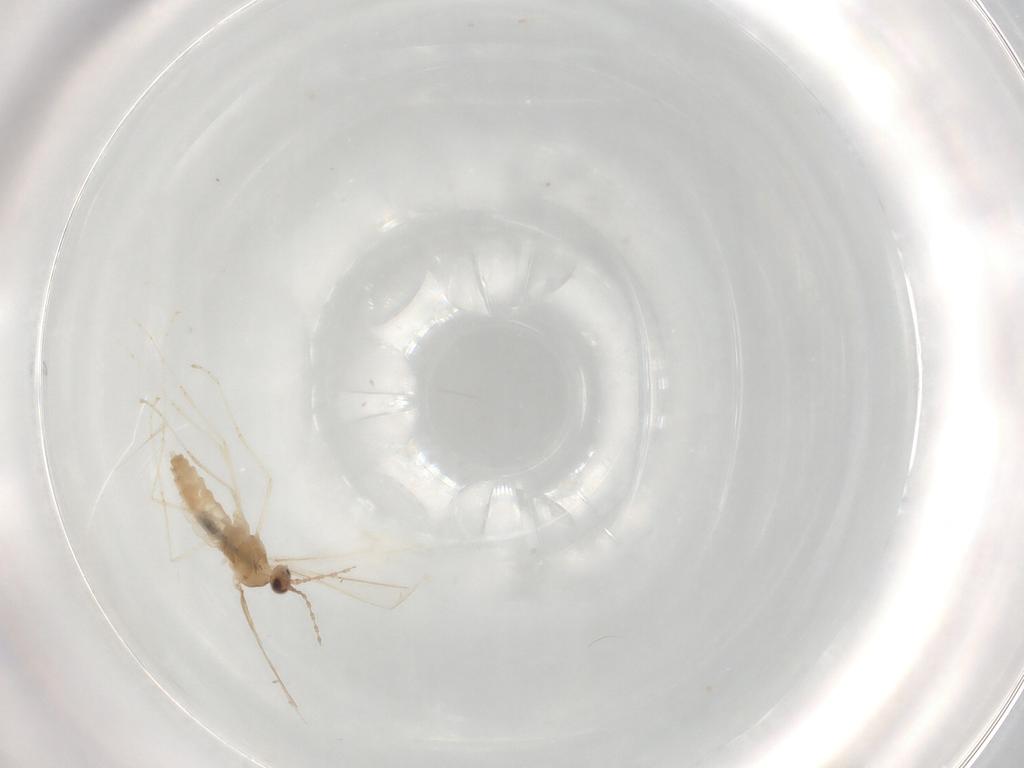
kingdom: Animalia
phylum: Arthropoda
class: Insecta
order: Diptera
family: Cecidomyiidae
